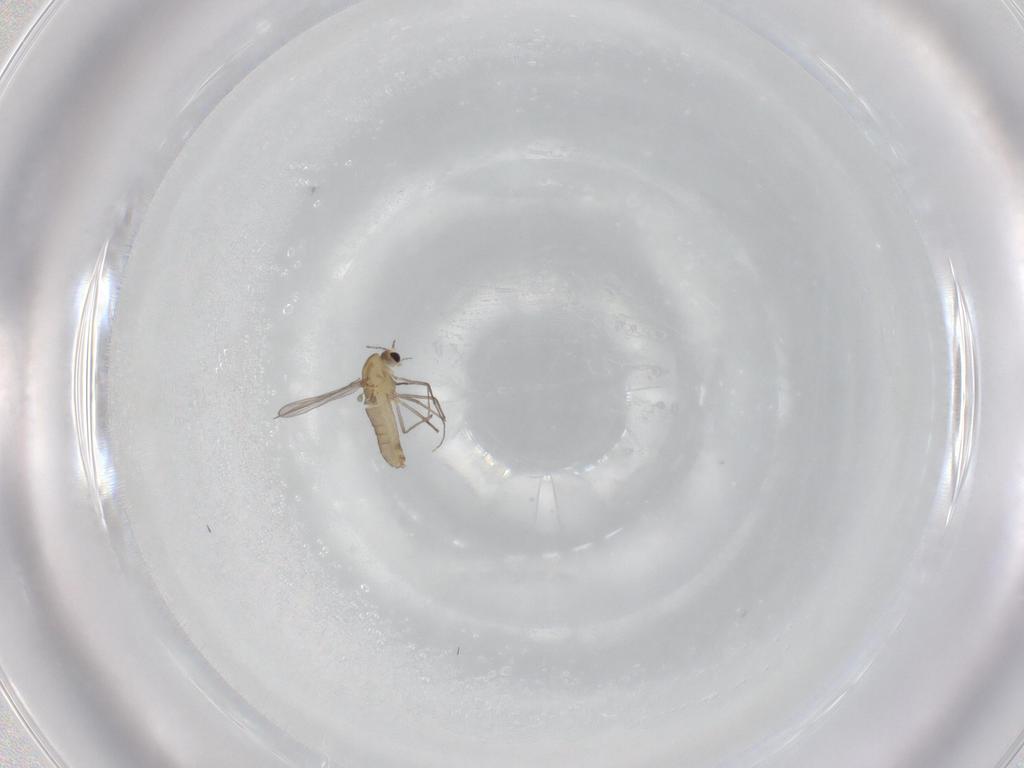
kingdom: Animalia
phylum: Arthropoda
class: Insecta
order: Diptera
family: Chironomidae
